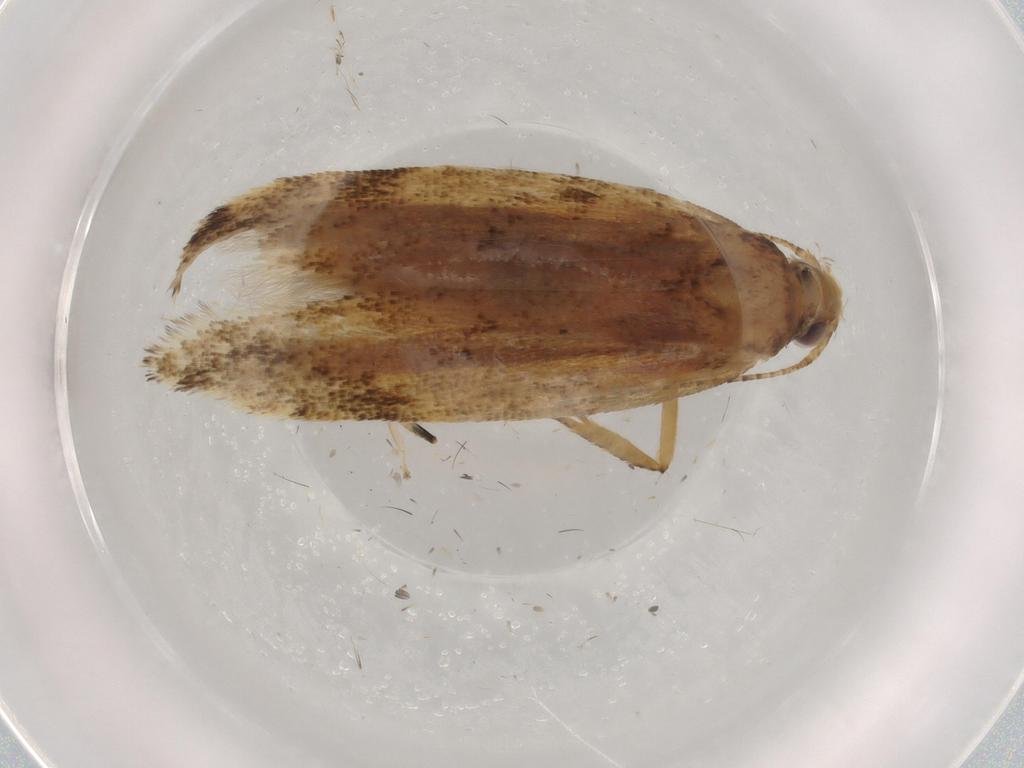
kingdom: Animalia
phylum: Arthropoda
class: Insecta
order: Lepidoptera
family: Gelechiidae
